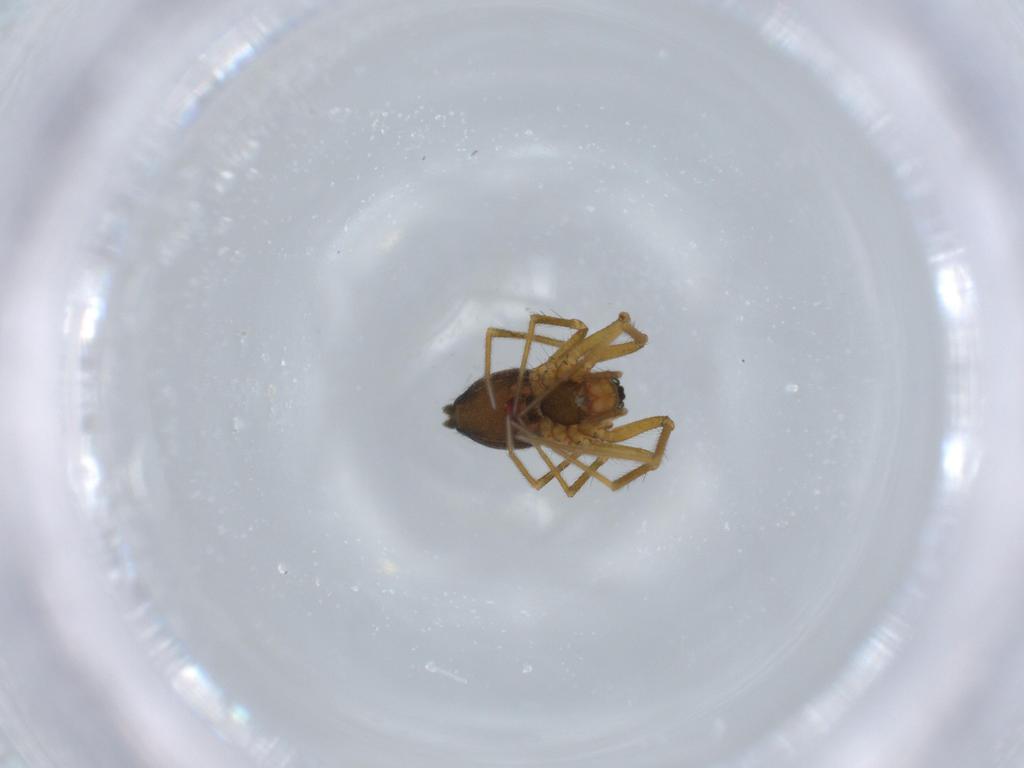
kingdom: Animalia
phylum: Arthropoda
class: Arachnida
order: Araneae
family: Linyphiidae
